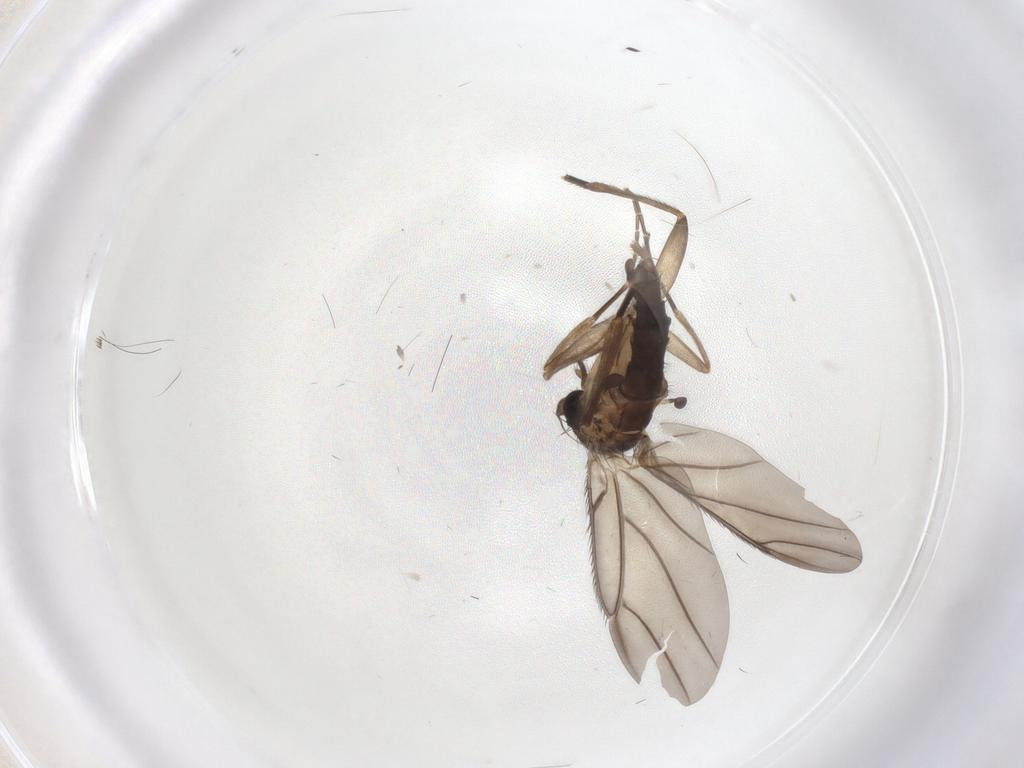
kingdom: Animalia
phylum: Arthropoda
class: Insecta
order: Diptera
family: Phoridae
